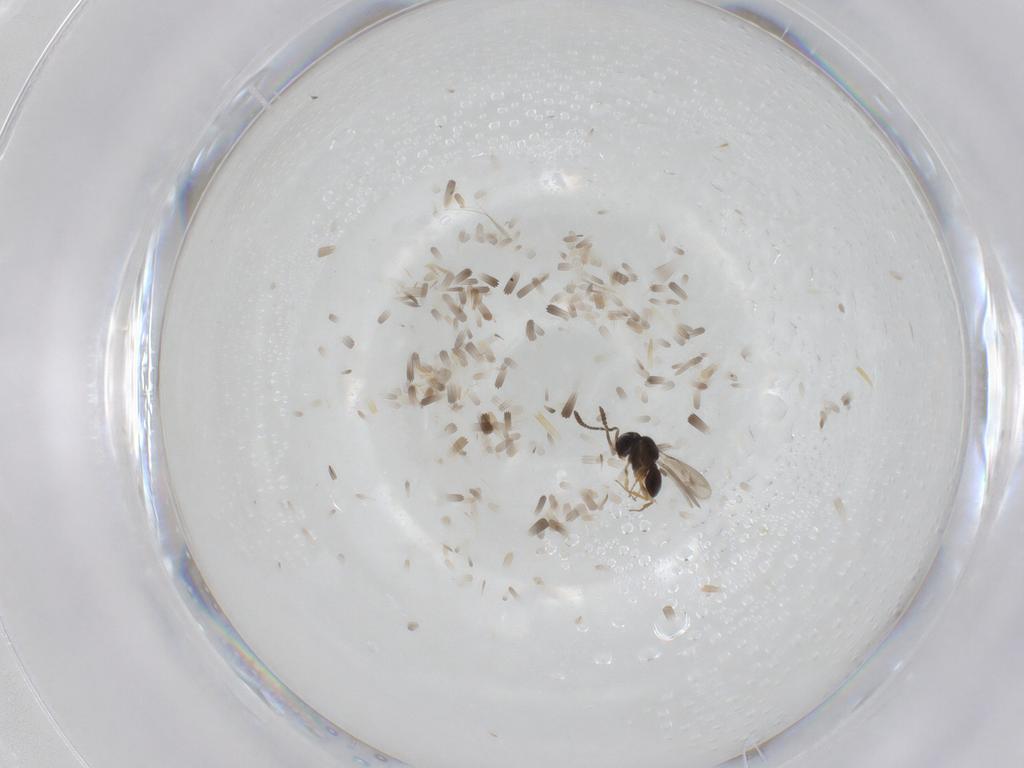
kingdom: Animalia
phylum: Arthropoda
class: Insecta
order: Hymenoptera
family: Scelionidae
